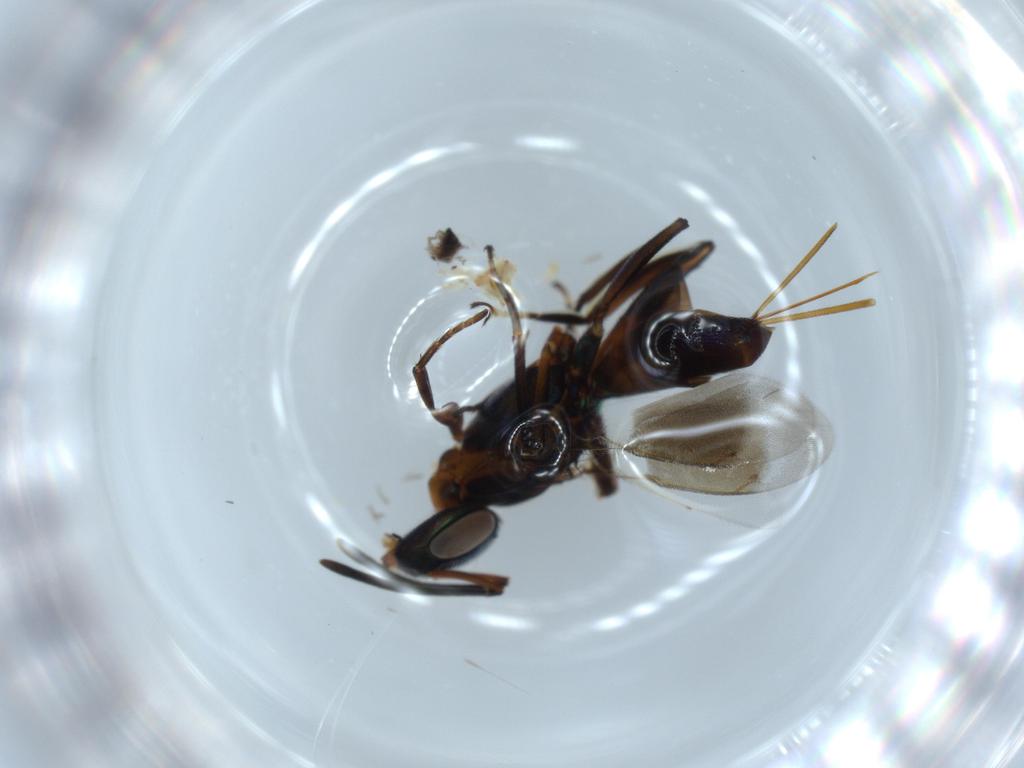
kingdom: Animalia
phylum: Arthropoda
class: Insecta
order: Hymenoptera
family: Eupelmidae
